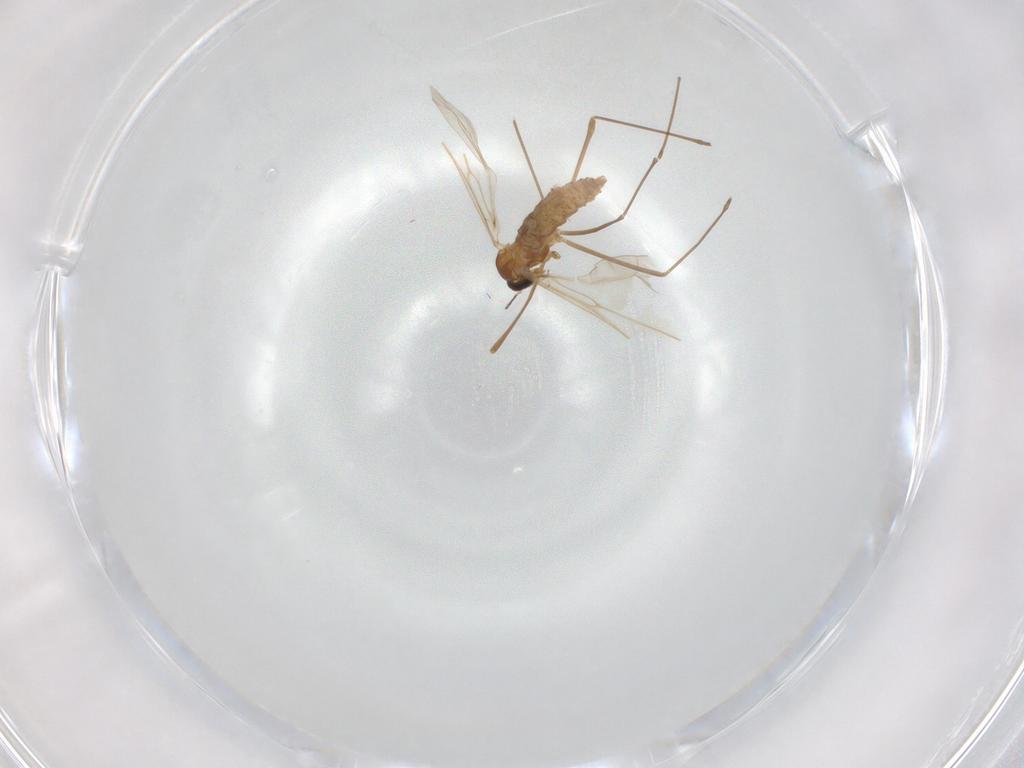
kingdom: Animalia
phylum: Arthropoda
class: Insecta
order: Diptera
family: Cecidomyiidae
